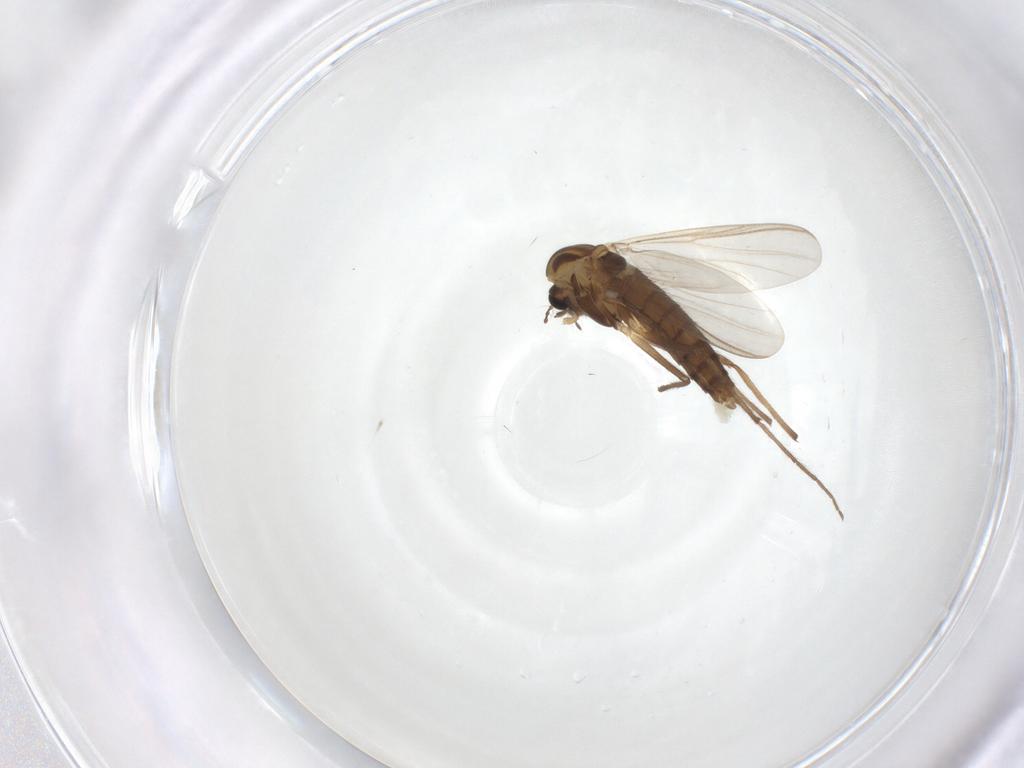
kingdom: Animalia
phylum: Arthropoda
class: Insecta
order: Diptera
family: Chironomidae
